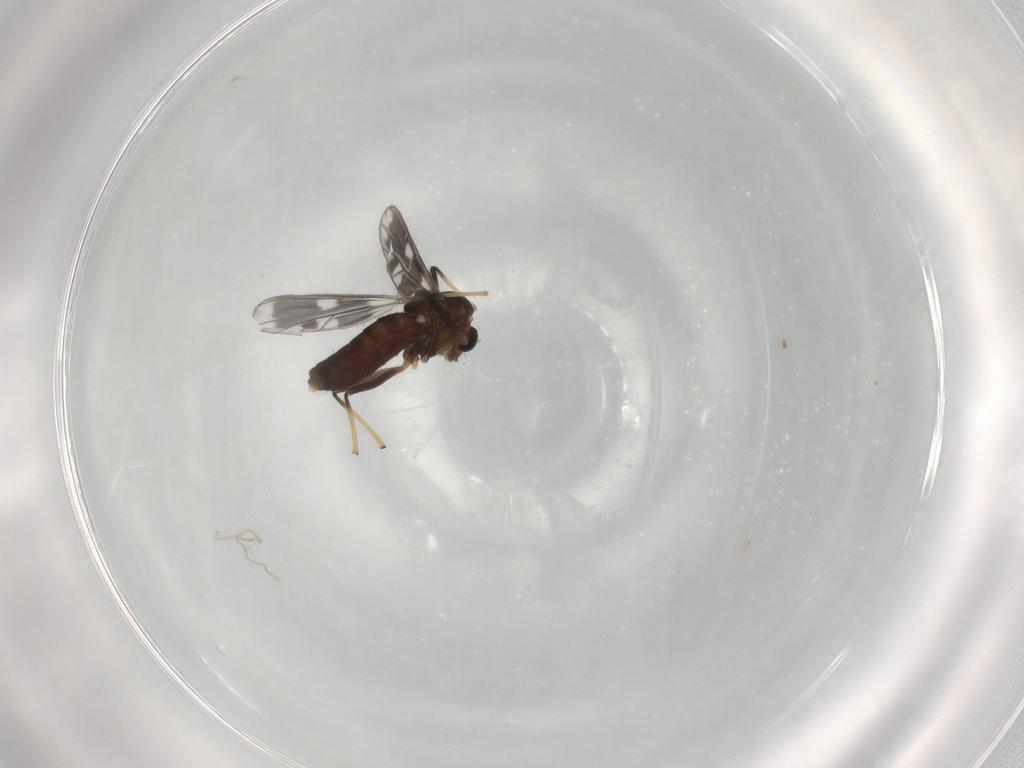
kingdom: Animalia
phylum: Arthropoda
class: Insecta
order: Diptera
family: Chironomidae
